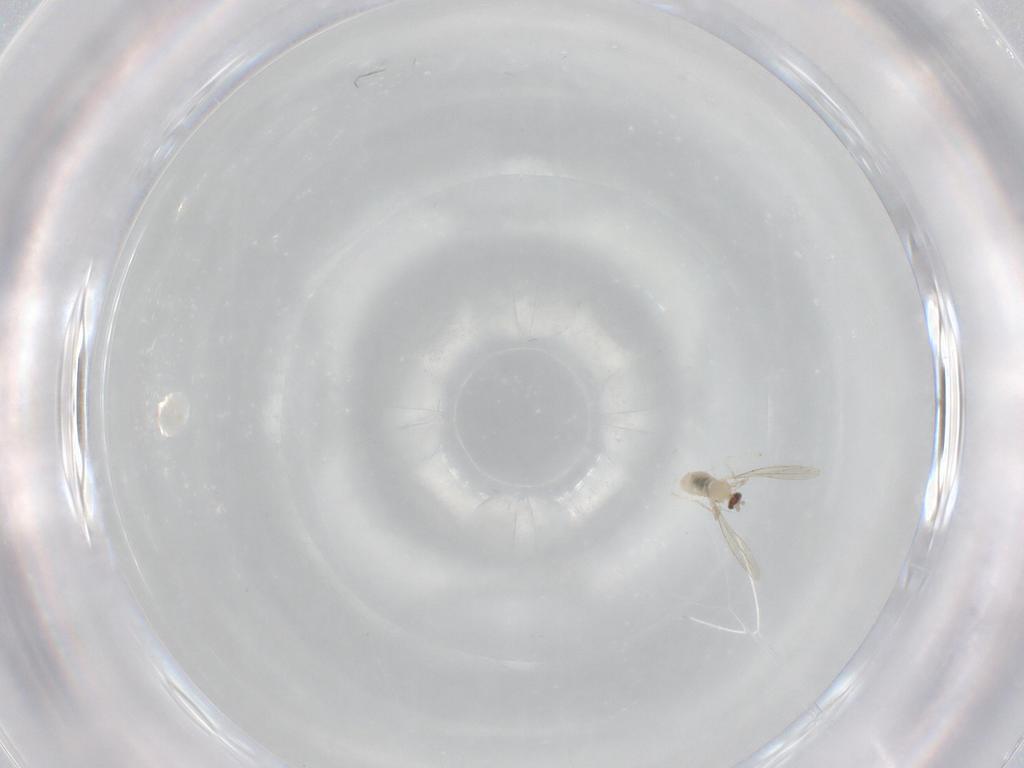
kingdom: Animalia
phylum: Arthropoda
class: Insecta
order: Diptera
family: Cecidomyiidae
